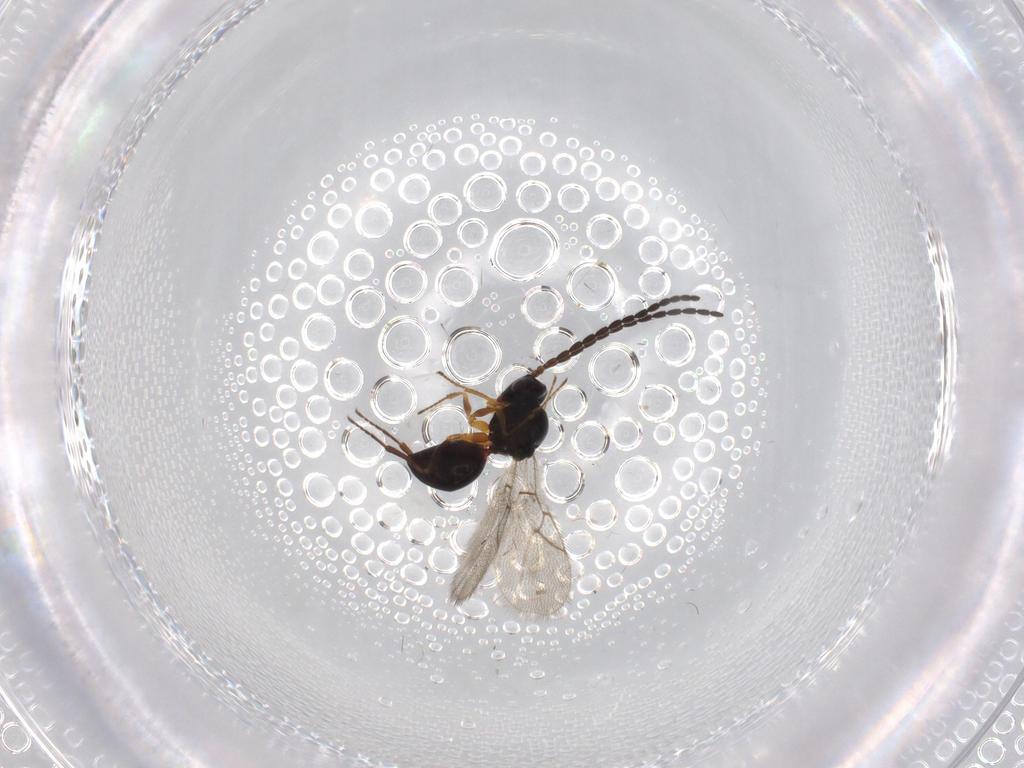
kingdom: Animalia
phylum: Arthropoda
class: Insecta
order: Hymenoptera
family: Figitidae
